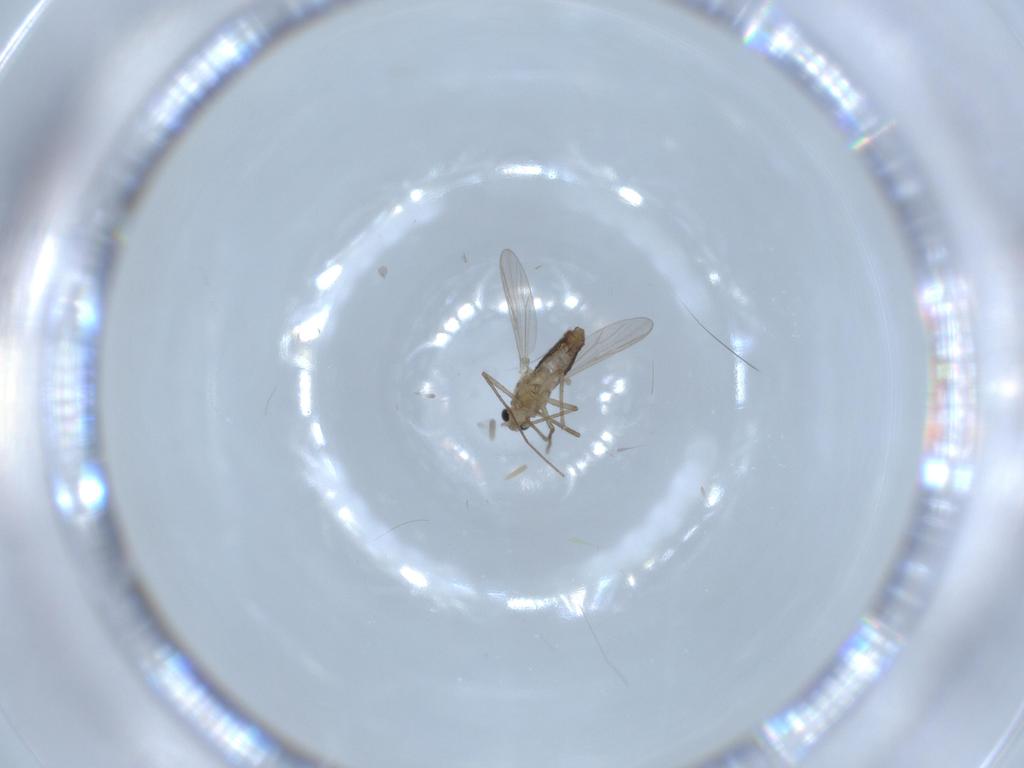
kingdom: Animalia
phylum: Arthropoda
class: Insecta
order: Diptera
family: Chironomidae
